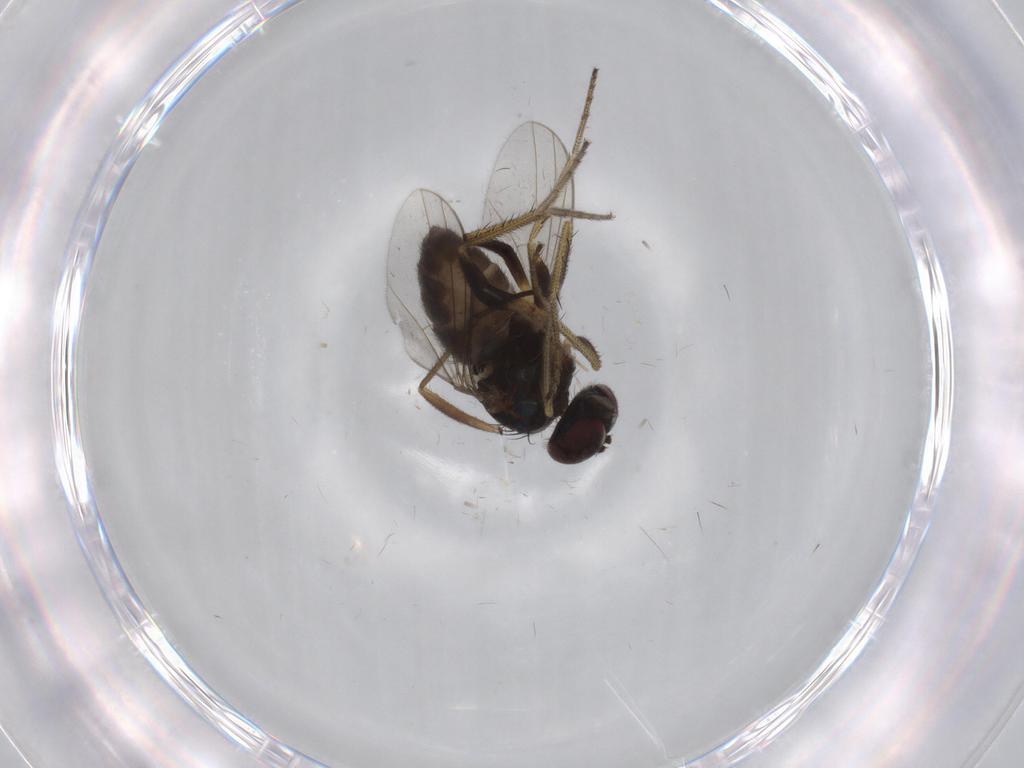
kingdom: Animalia
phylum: Arthropoda
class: Insecta
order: Diptera
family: Dolichopodidae
